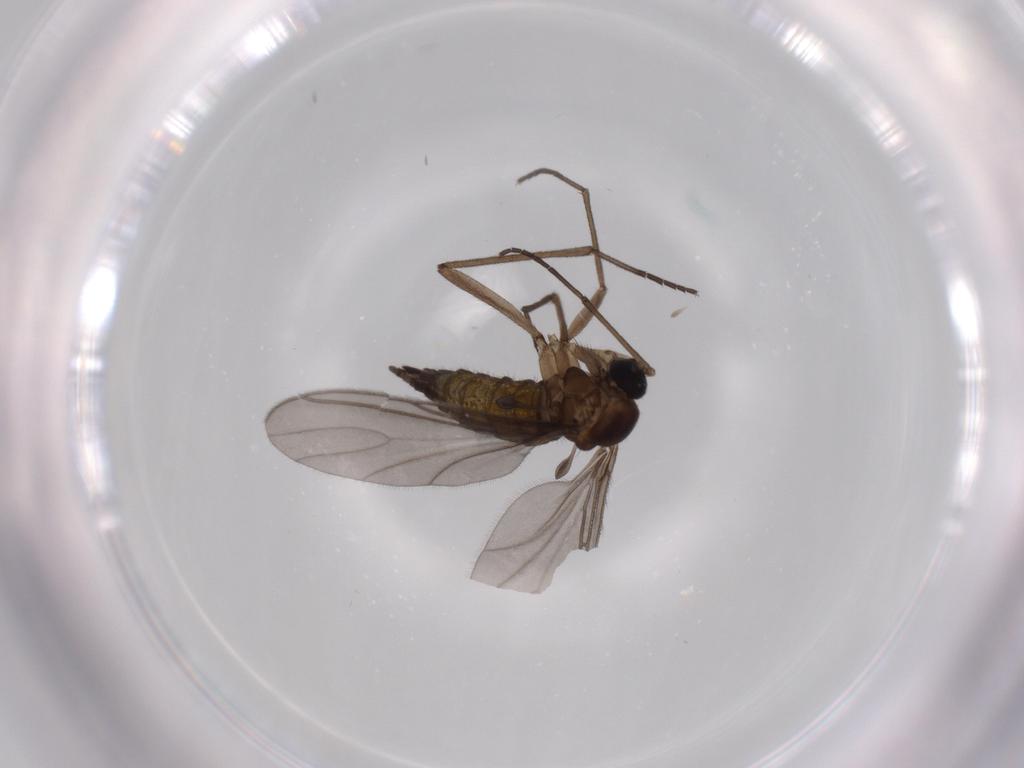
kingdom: Animalia
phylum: Arthropoda
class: Insecta
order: Diptera
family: Sciaridae
